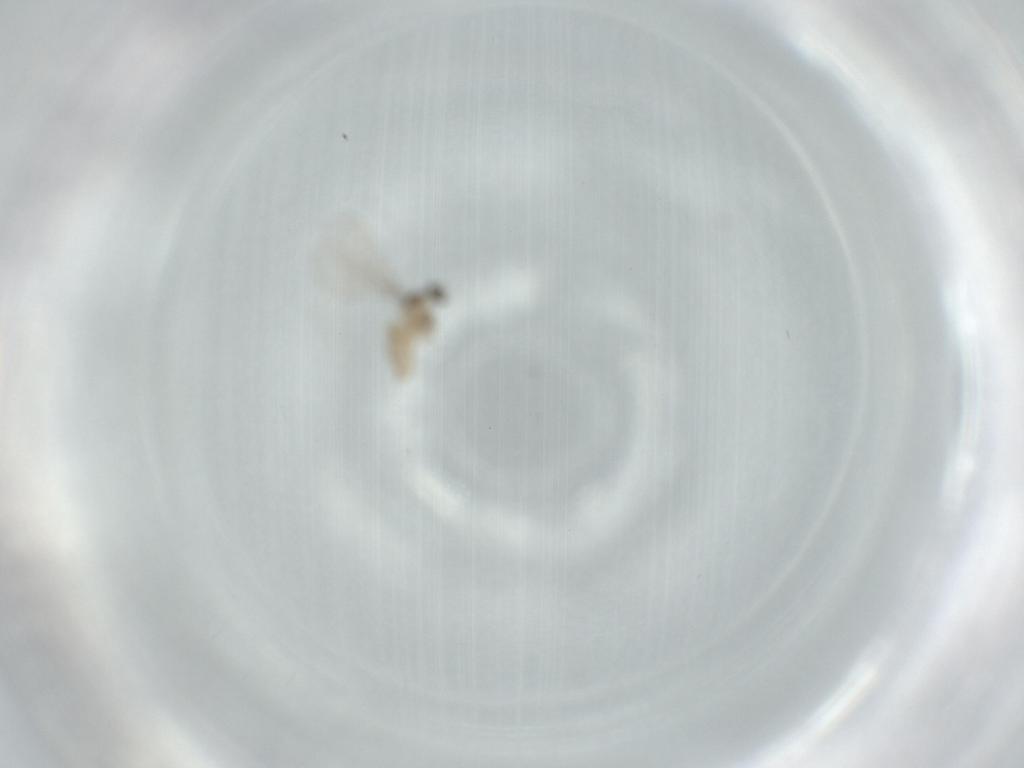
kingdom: Animalia
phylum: Arthropoda
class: Insecta
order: Diptera
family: Cecidomyiidae
